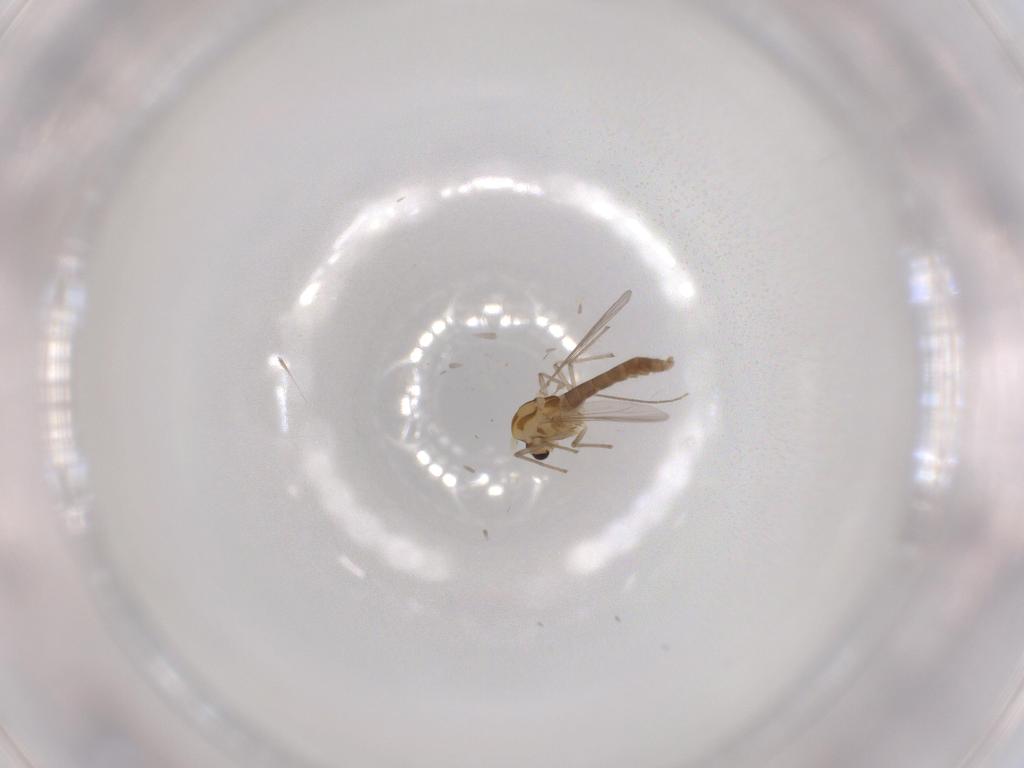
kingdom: Animalia
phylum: Arthropoda
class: Insecta
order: Diptera
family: Chironomidae
